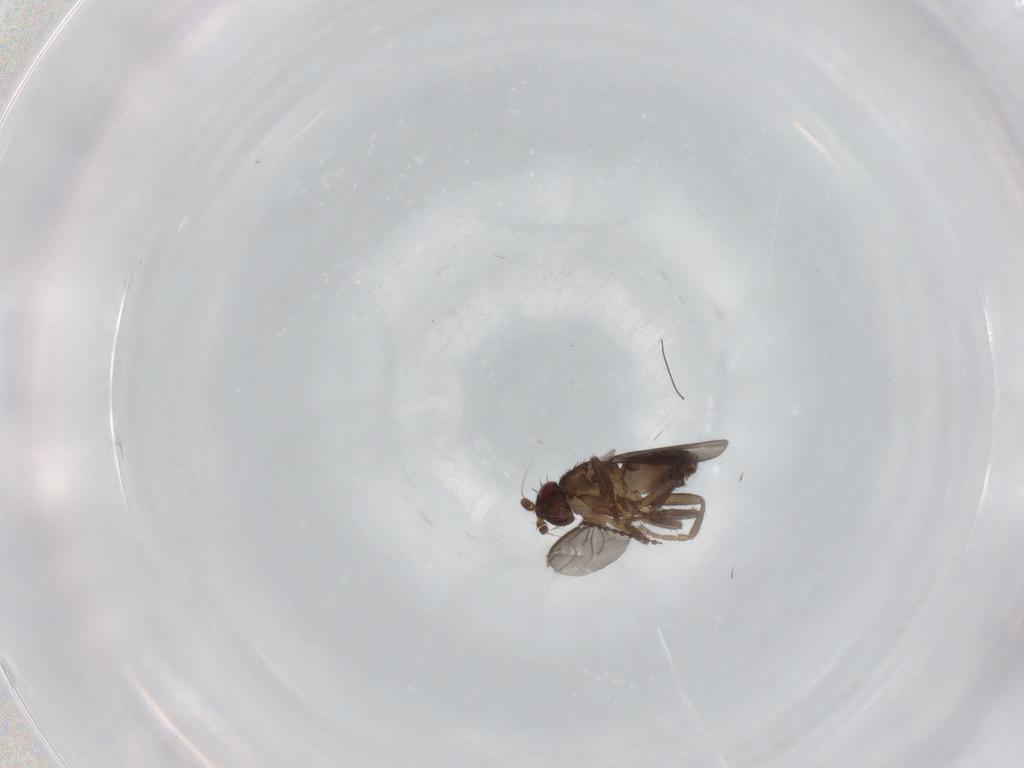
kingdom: Animalia
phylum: Arthropoda
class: Insecta
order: Diptera
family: Sphaeroceridae
